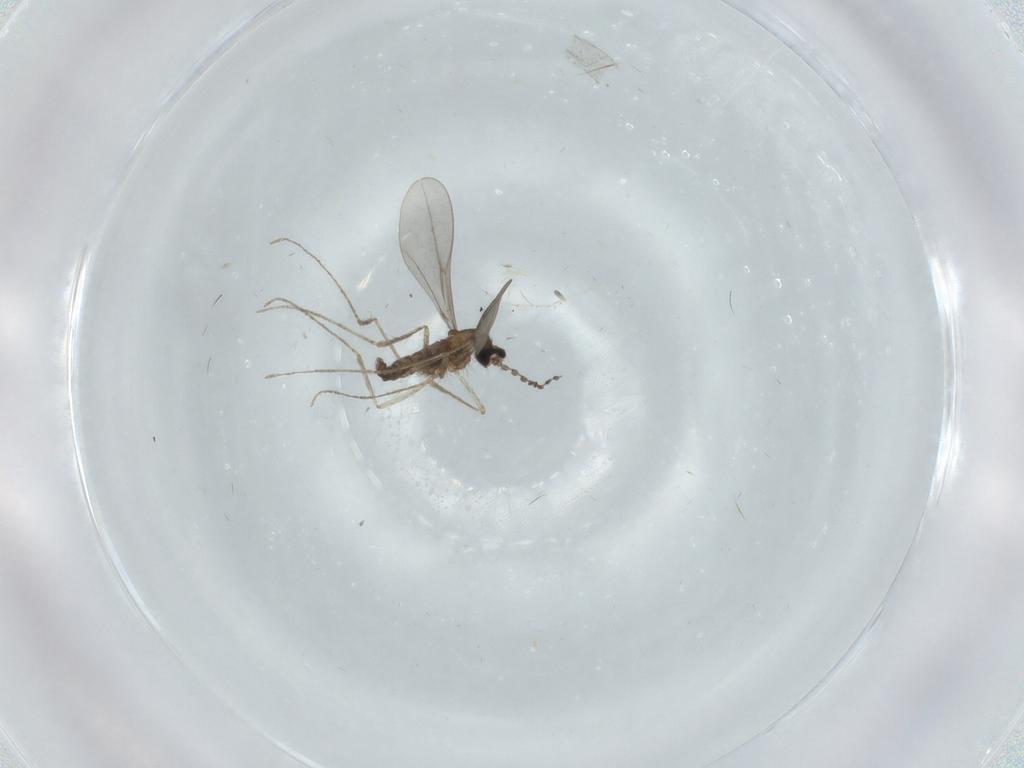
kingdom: Animalia
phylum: Arthropoda
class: Insecta
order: Diptera
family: Cecidomyiidae
